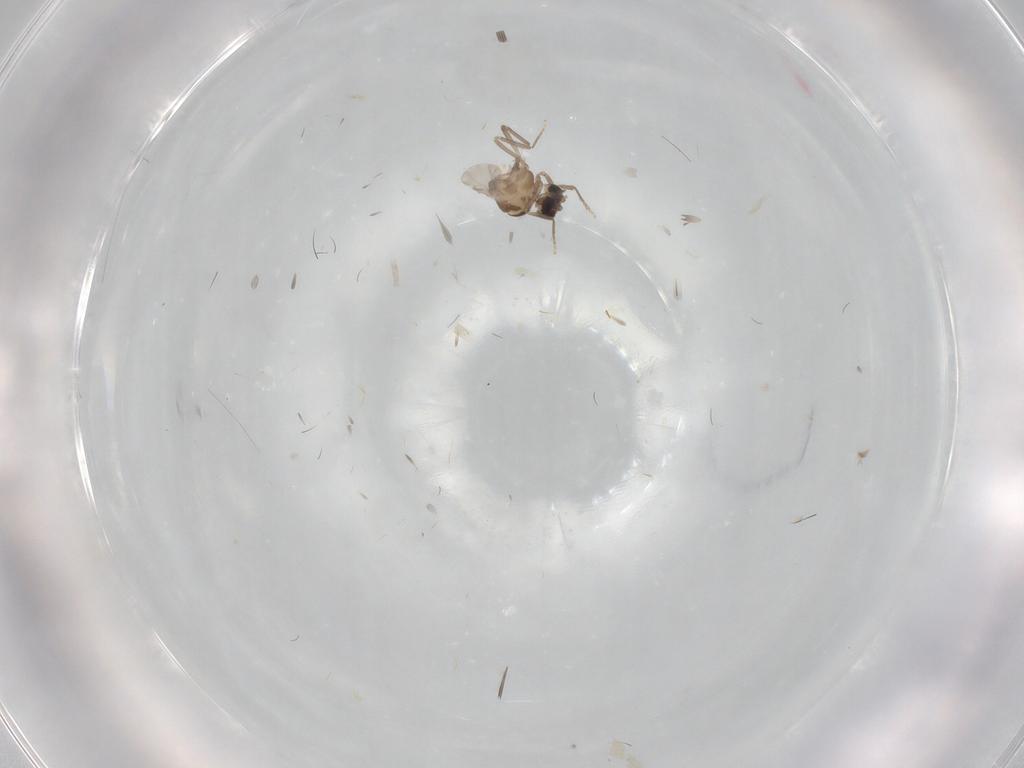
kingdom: Animalia
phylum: Arthropoda
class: Insecta
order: Diptera
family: Ceratopogonidae
